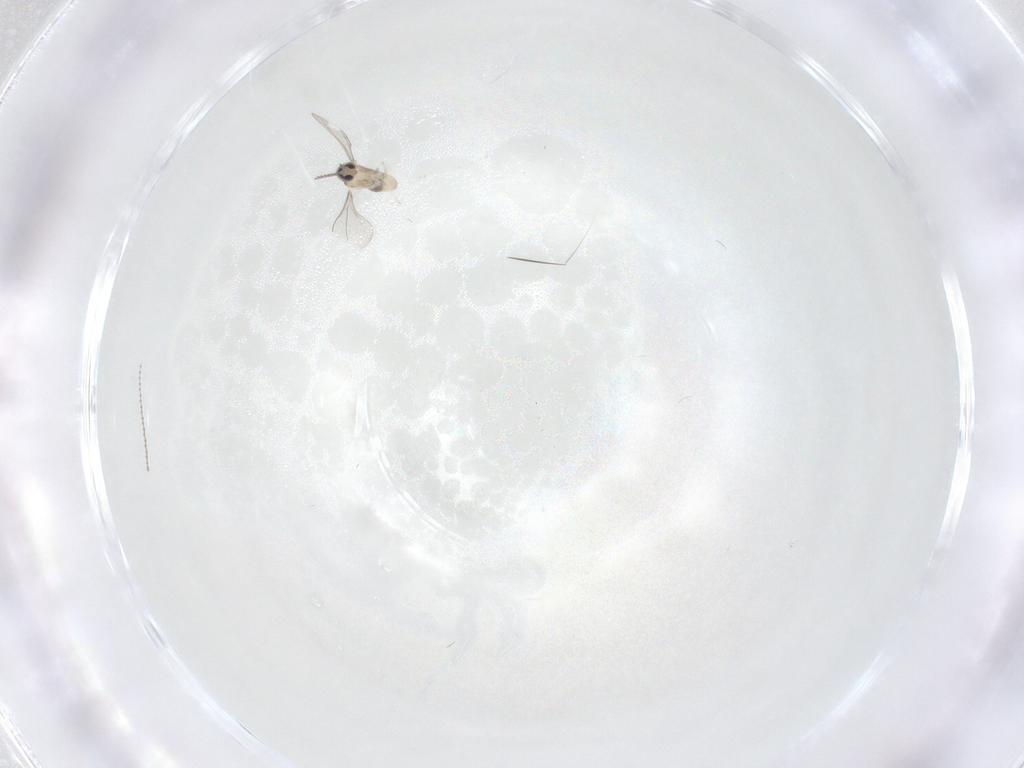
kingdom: Animalia
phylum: Arthropoda
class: Insecta
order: Diptera
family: Cecidomyiidae
